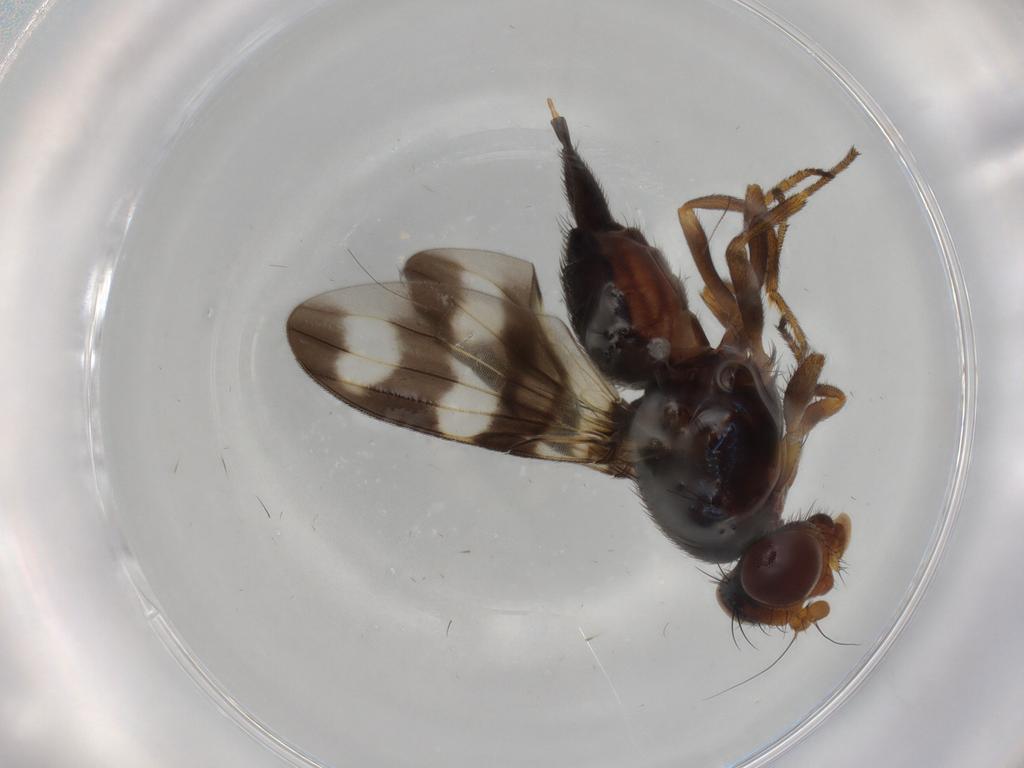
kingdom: Animalia
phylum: Arthropoda
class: Insecta
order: Diptera
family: Chironomidae
